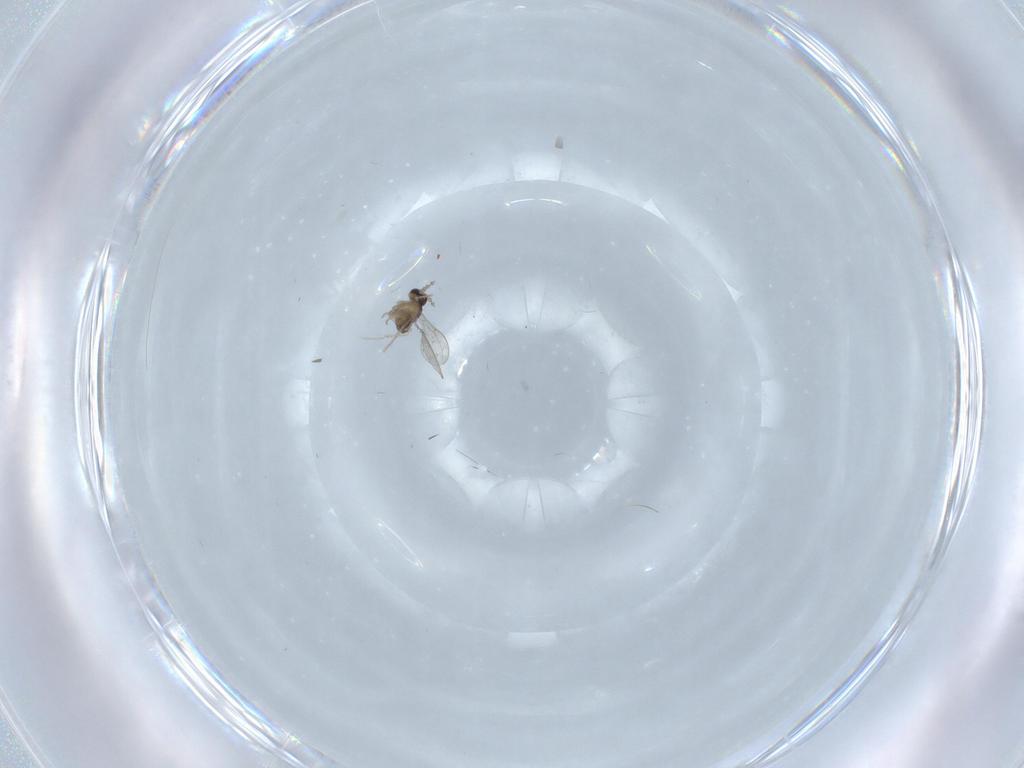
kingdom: Animalia
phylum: Arthropoda
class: Insecta
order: Diptera
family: Cecidomyiidae
